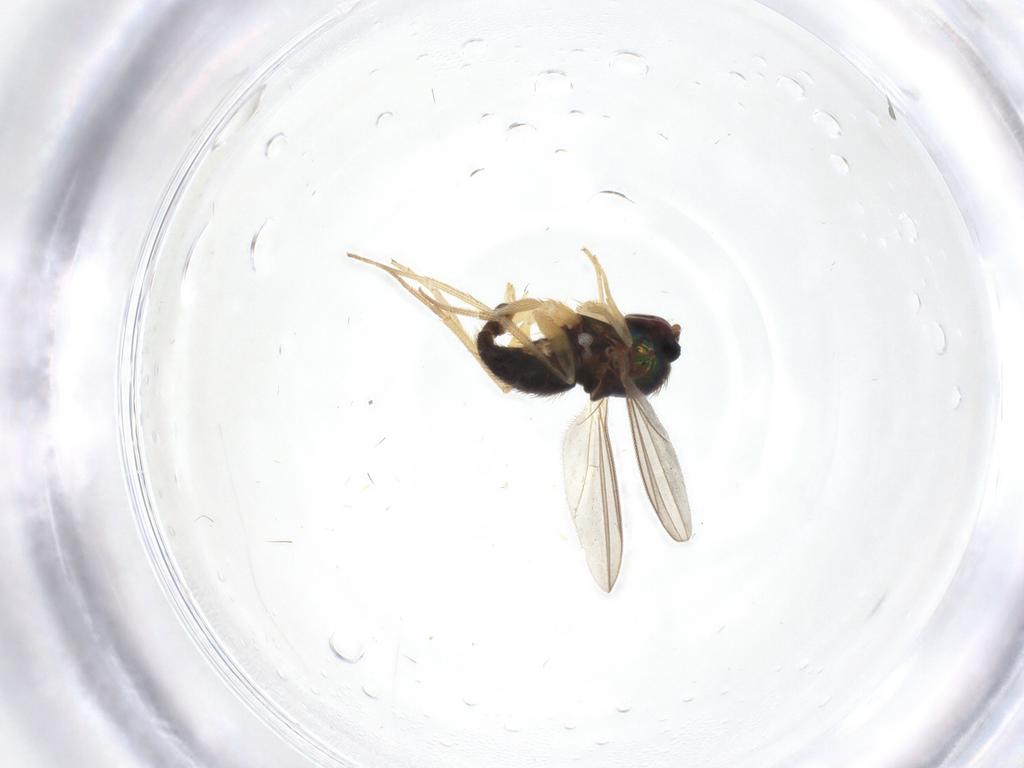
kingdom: Animalia
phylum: Arthropoda
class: Insecta
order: Diptera
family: Dolichopodidae
